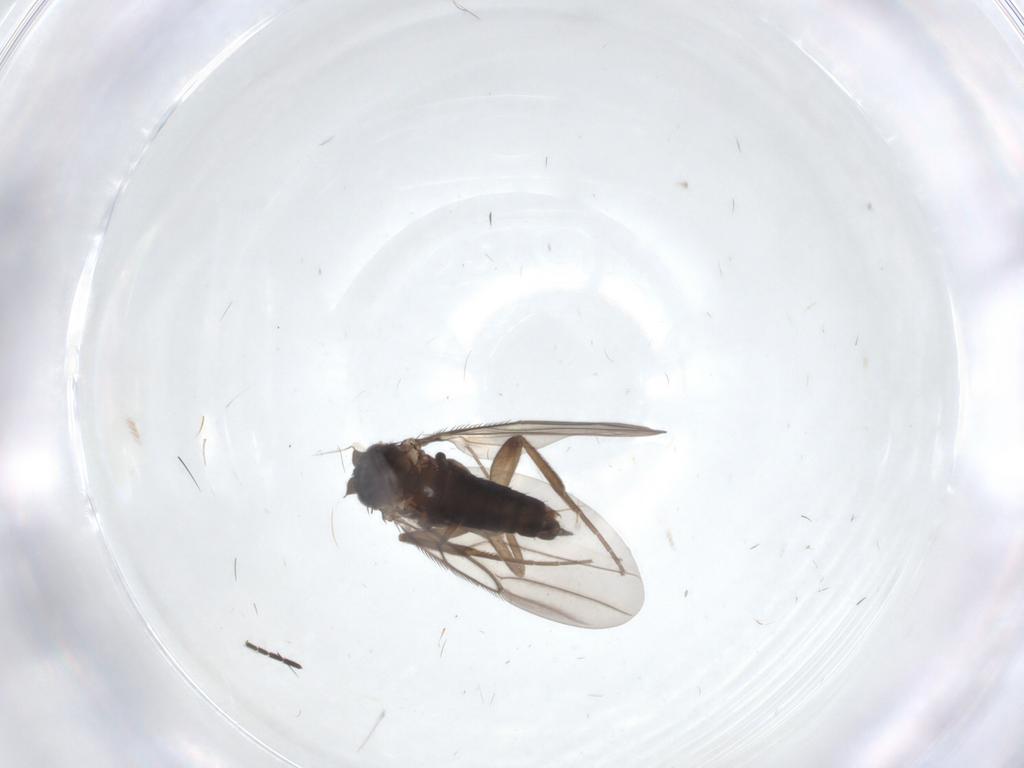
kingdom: Animalia
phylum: Arthropoda
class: Insecta
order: Diptera
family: Phoridae
